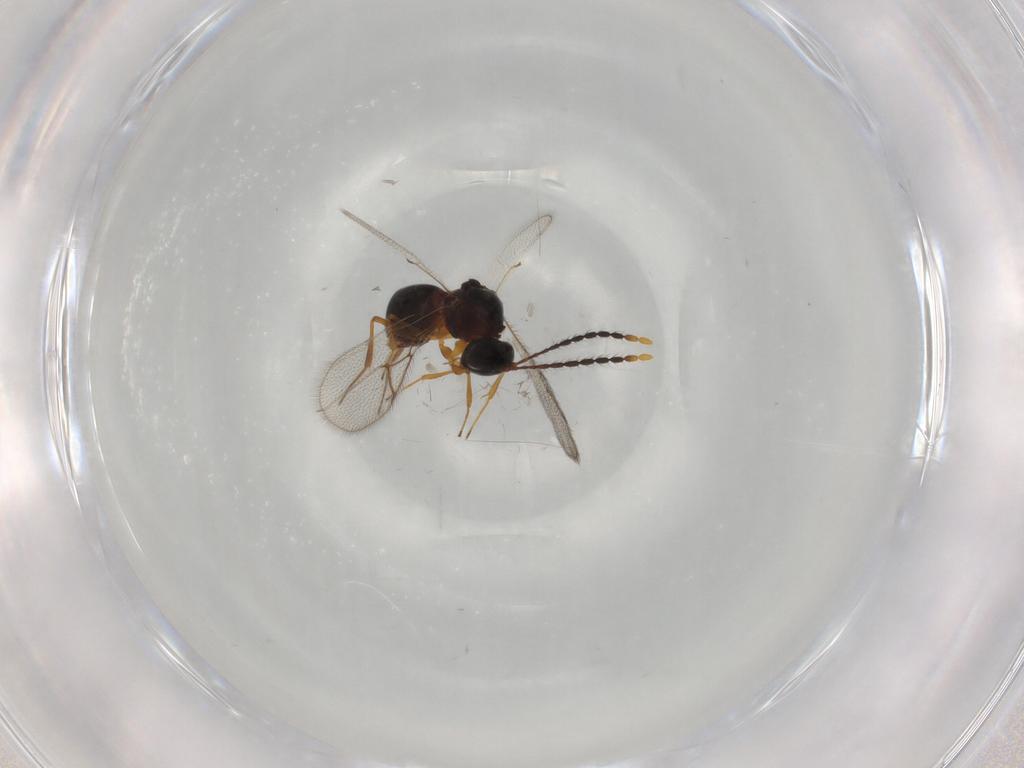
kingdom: Animalia
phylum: Arthropoda
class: Insecta
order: Hymenoptera
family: Figitidae
